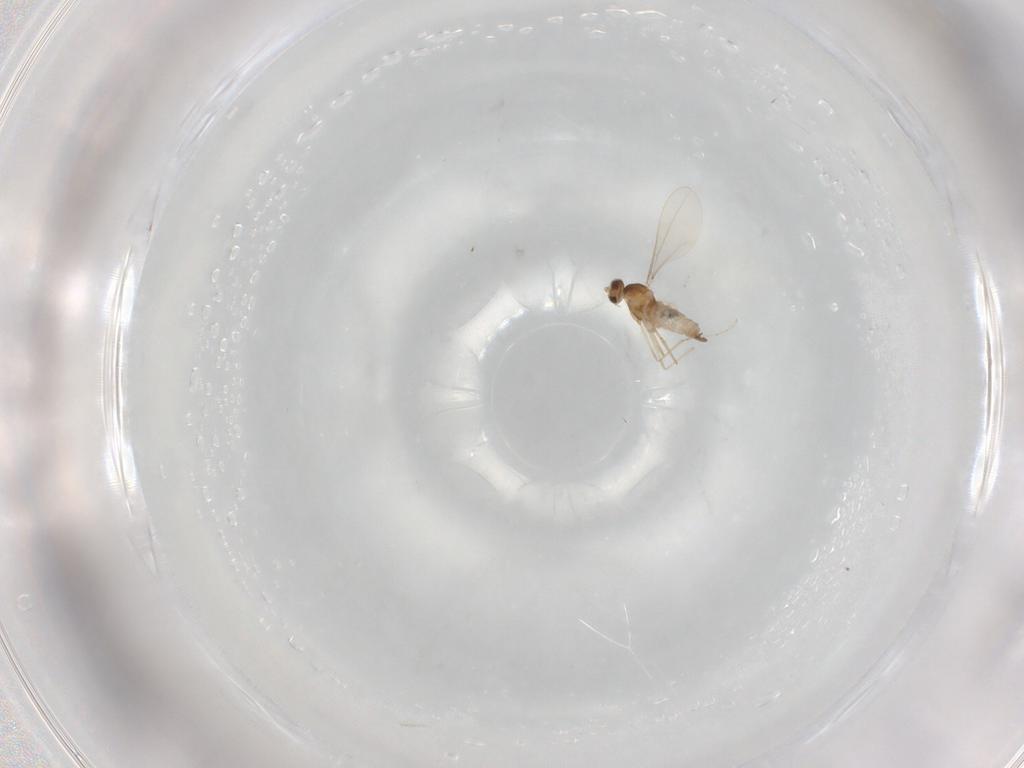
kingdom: Animalia
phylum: Arthropoda
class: Insecta
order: Diptera
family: Cecidomyiidae
